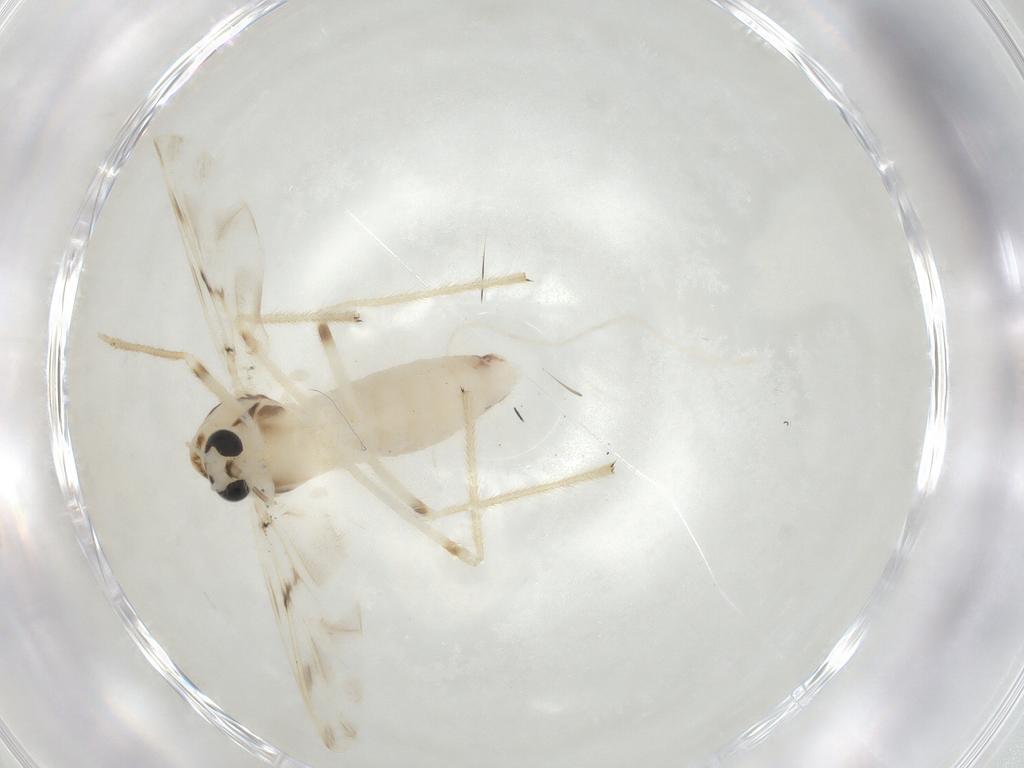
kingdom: Animalia
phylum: Arthropoda
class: Insecta
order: Diptera
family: Chironomidae
